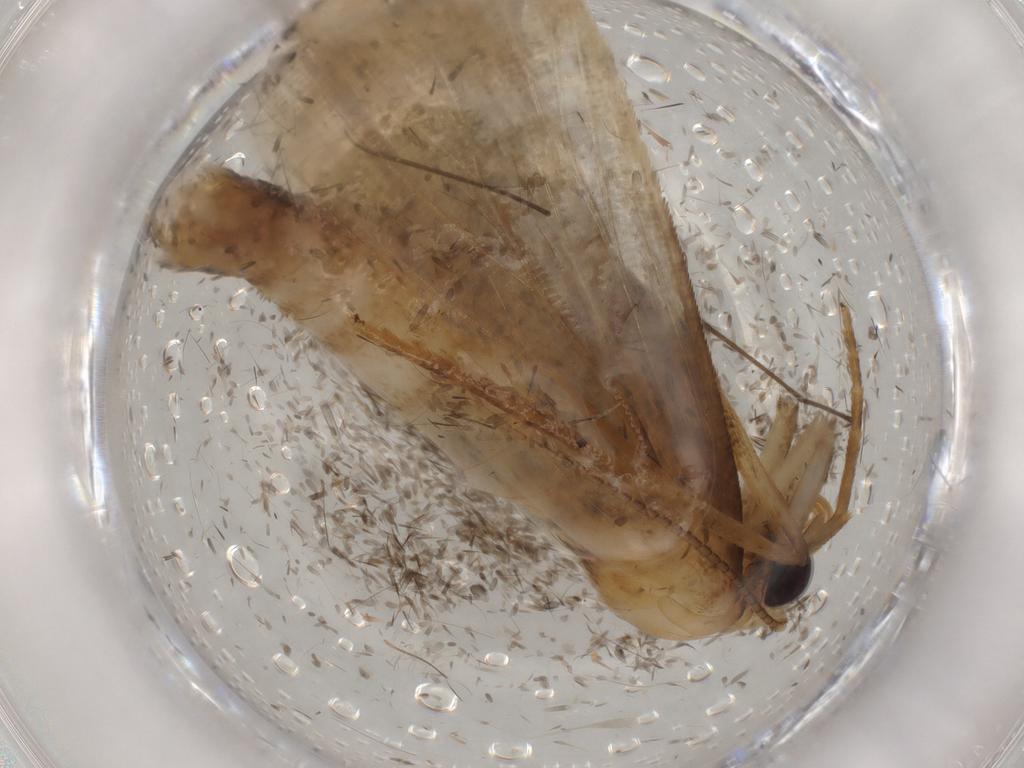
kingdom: Animalia
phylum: Arthropoda
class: Insecta
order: Lepidoptera
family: Noctuidae
